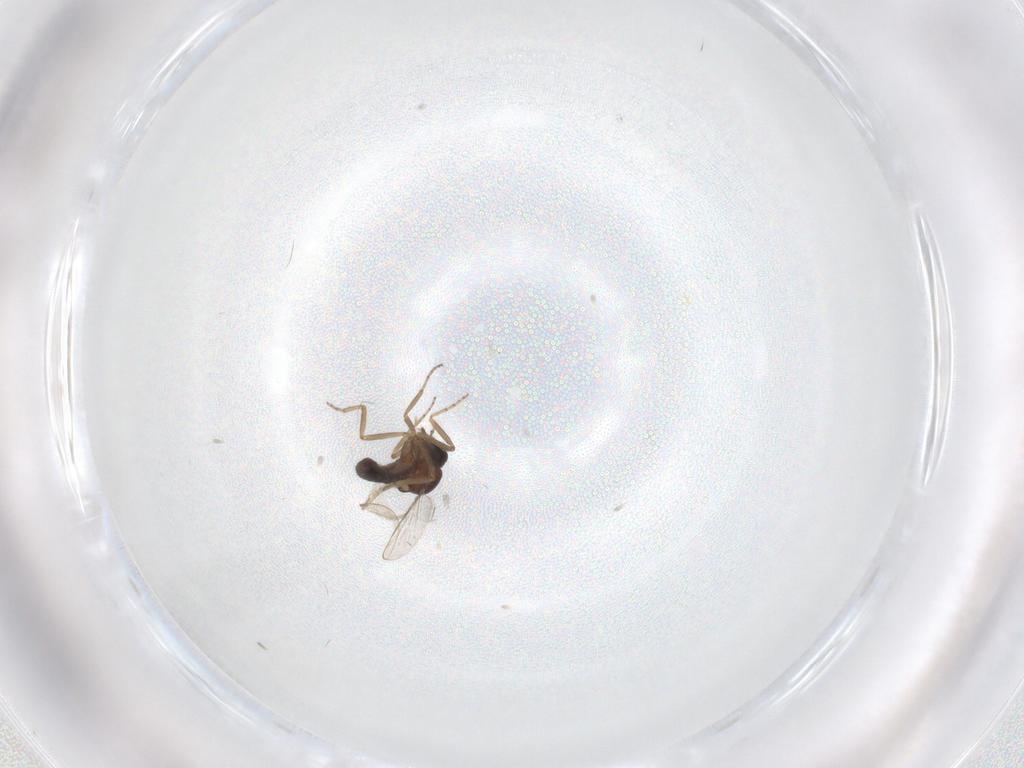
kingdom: Animalia
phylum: Arthropoda
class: Insecta
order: Diptera
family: Ceratopogonidae
